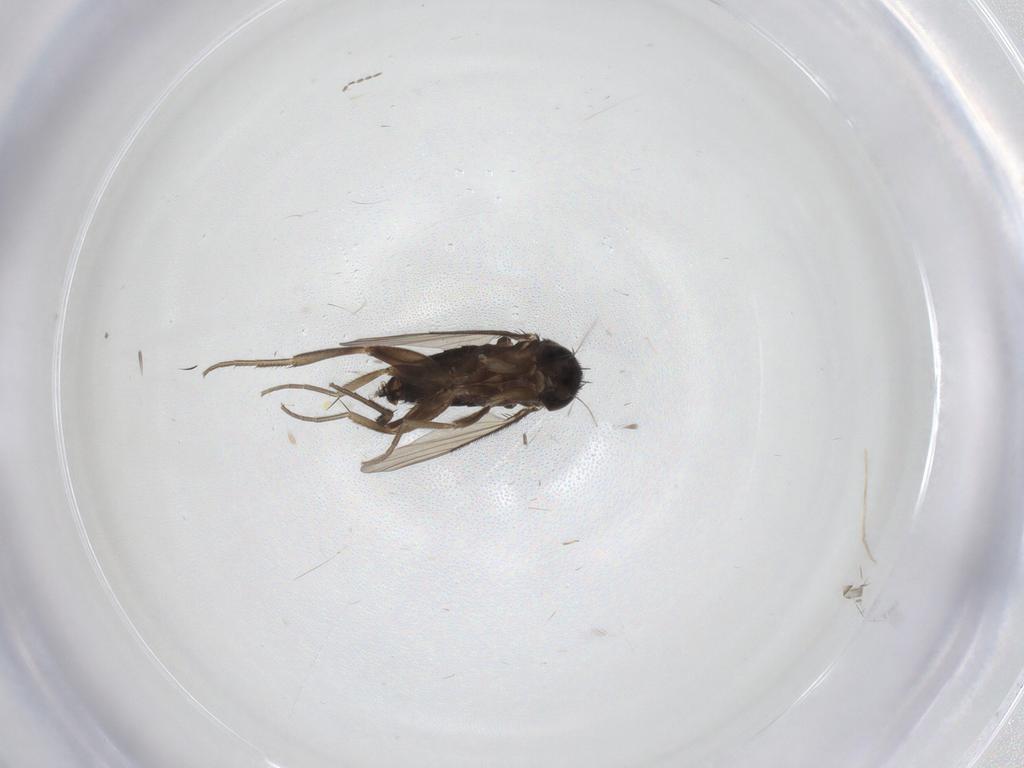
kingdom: Animalia
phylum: Arthropoda
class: Insecta
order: Diptera
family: Phoridae
